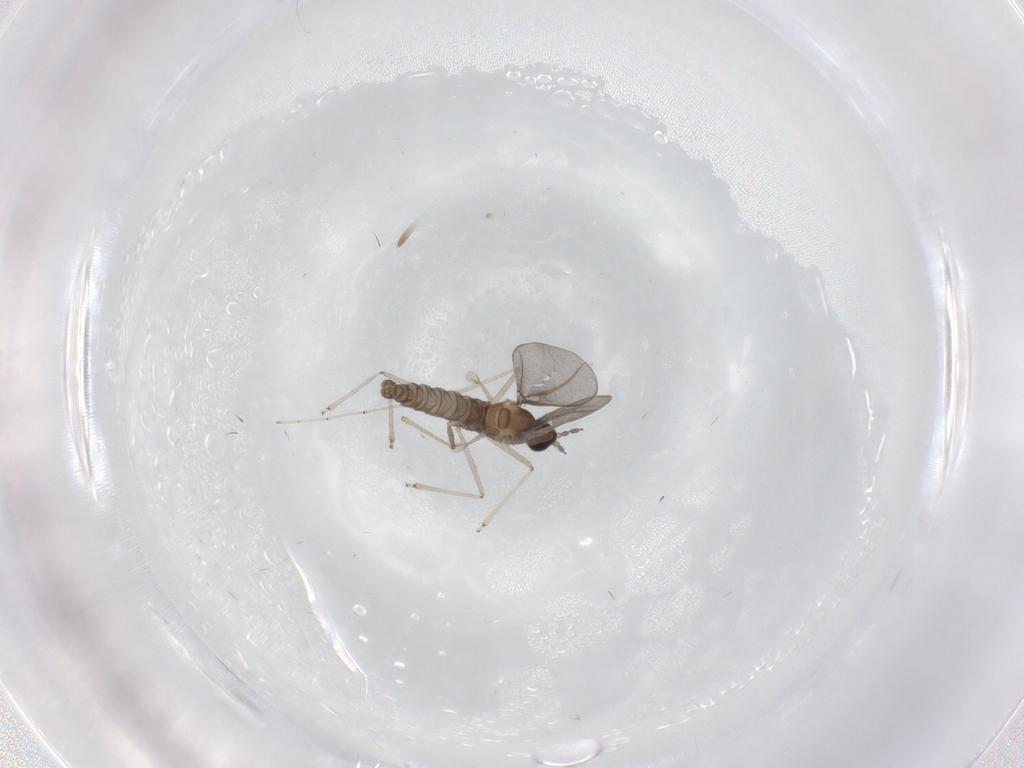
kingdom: Animalia
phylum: Arthropoda
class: Insecta
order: Diptera
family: Cecidomyiidae
